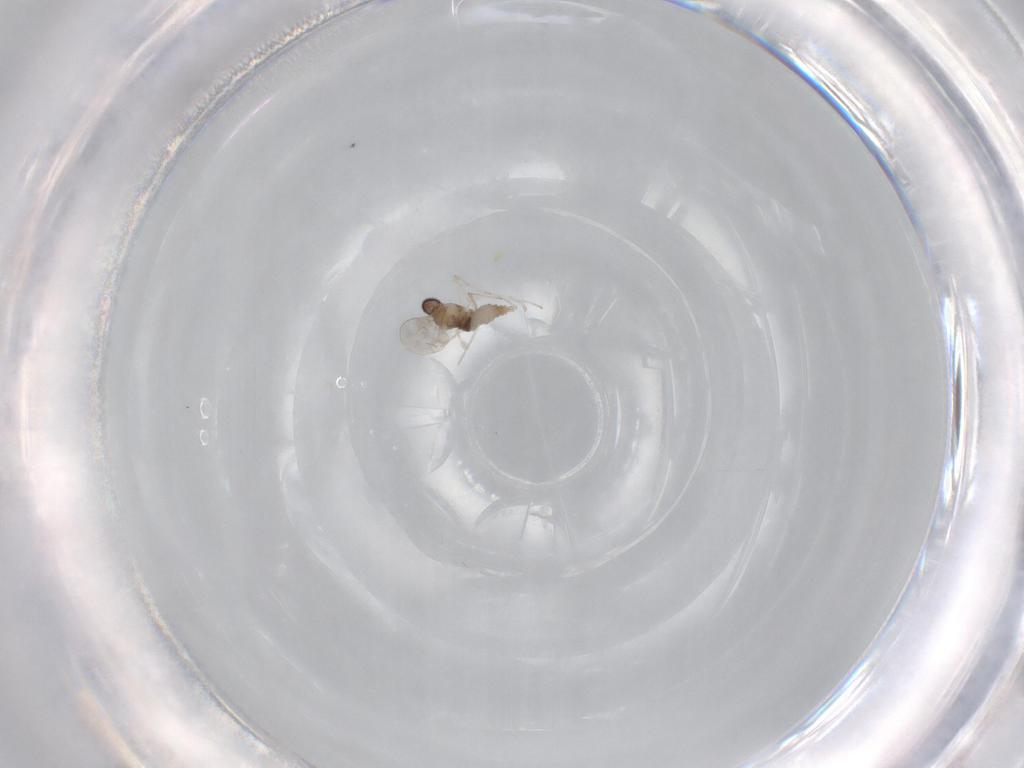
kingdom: Animalia
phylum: Arthropoda
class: Insecta
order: Diptera
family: Cecidomyiidae
